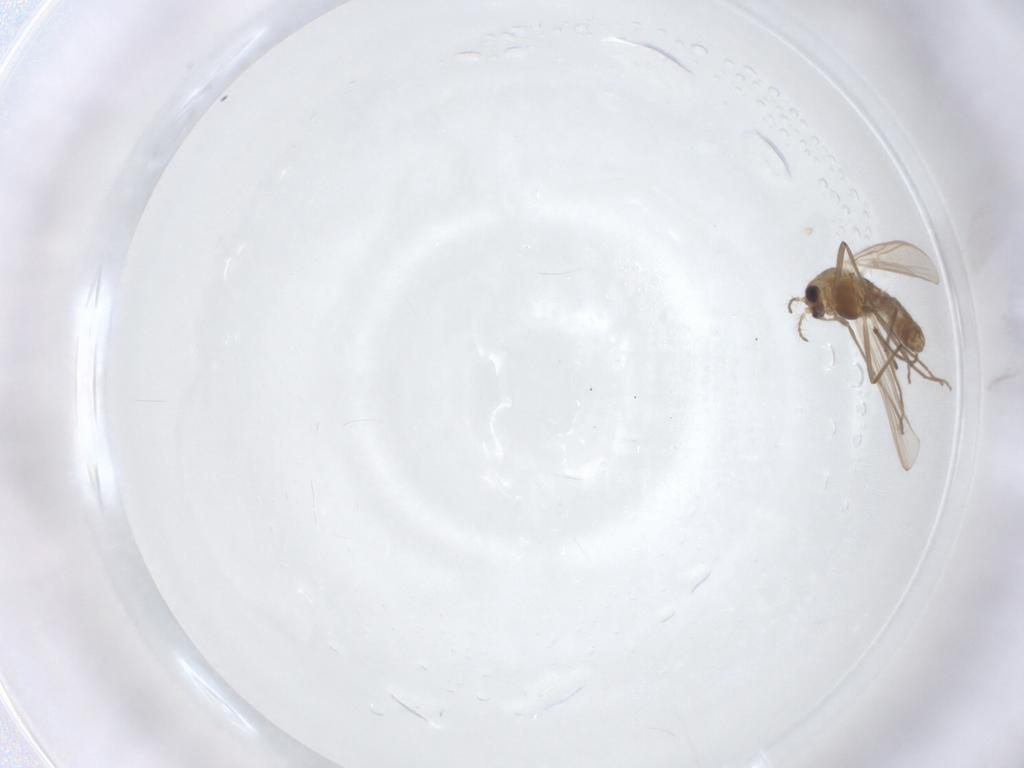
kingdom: Animalia
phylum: Arthropoda
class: Insecta
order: Diptera
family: Chironomidae
